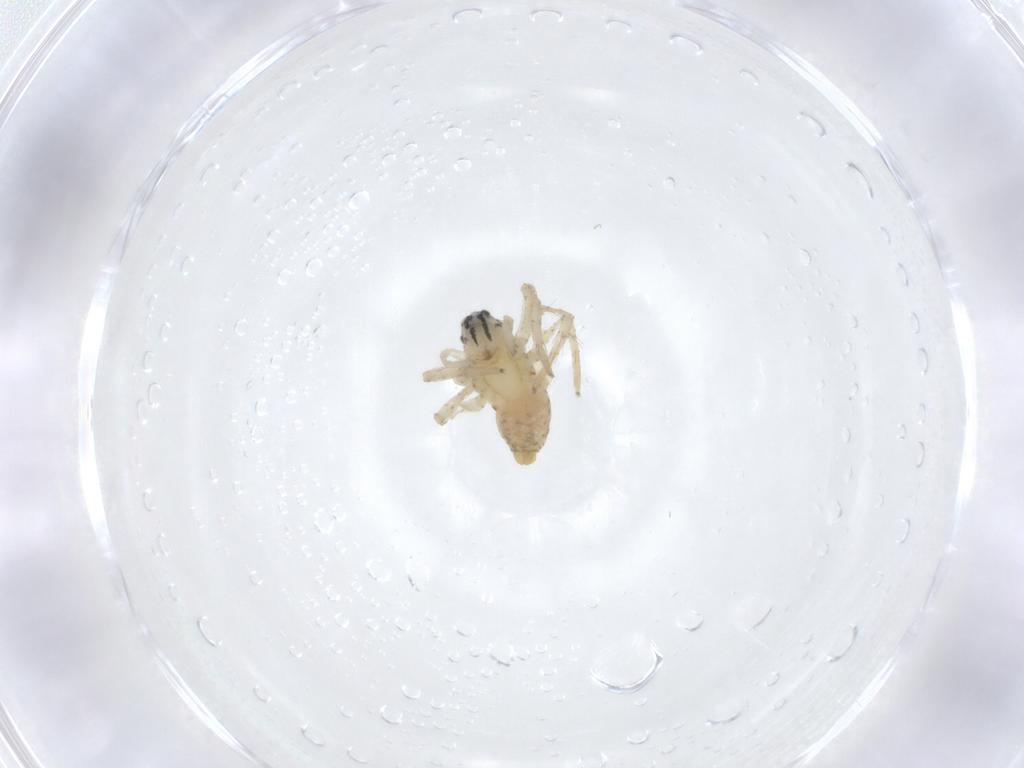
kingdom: Animalia
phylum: Arthropoda
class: Arachnida
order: Araneae
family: Oxyopidae
